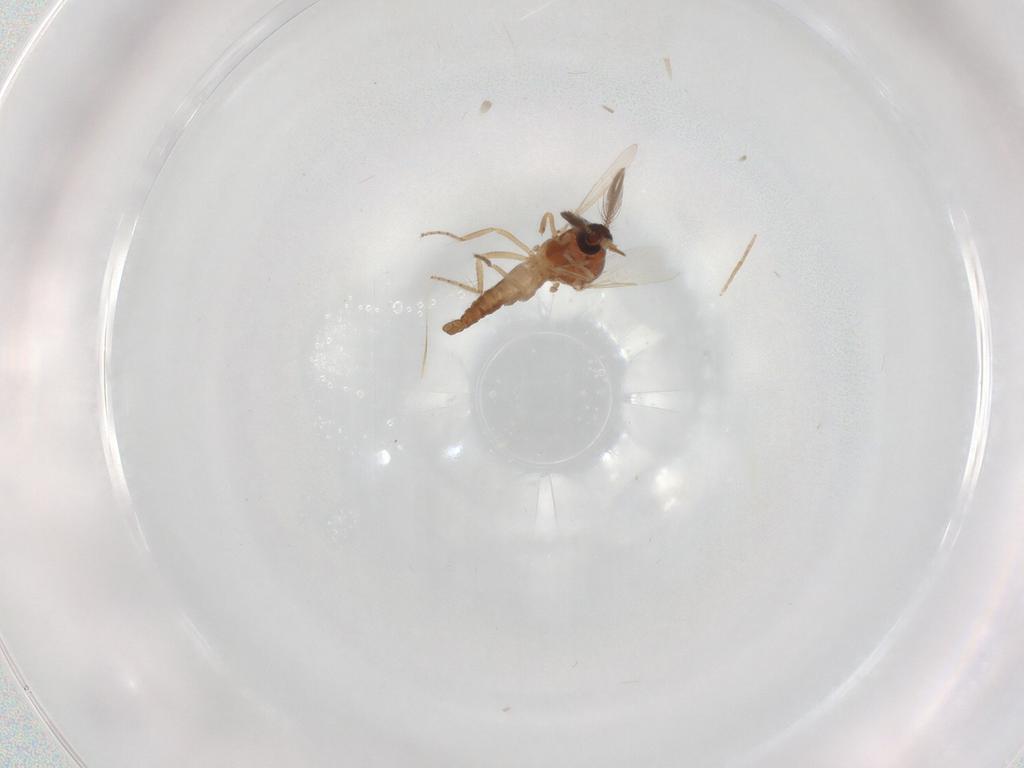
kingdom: Animalia
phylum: Arthropoda
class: Insecta
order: Diptera
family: Ceratopogonidae
